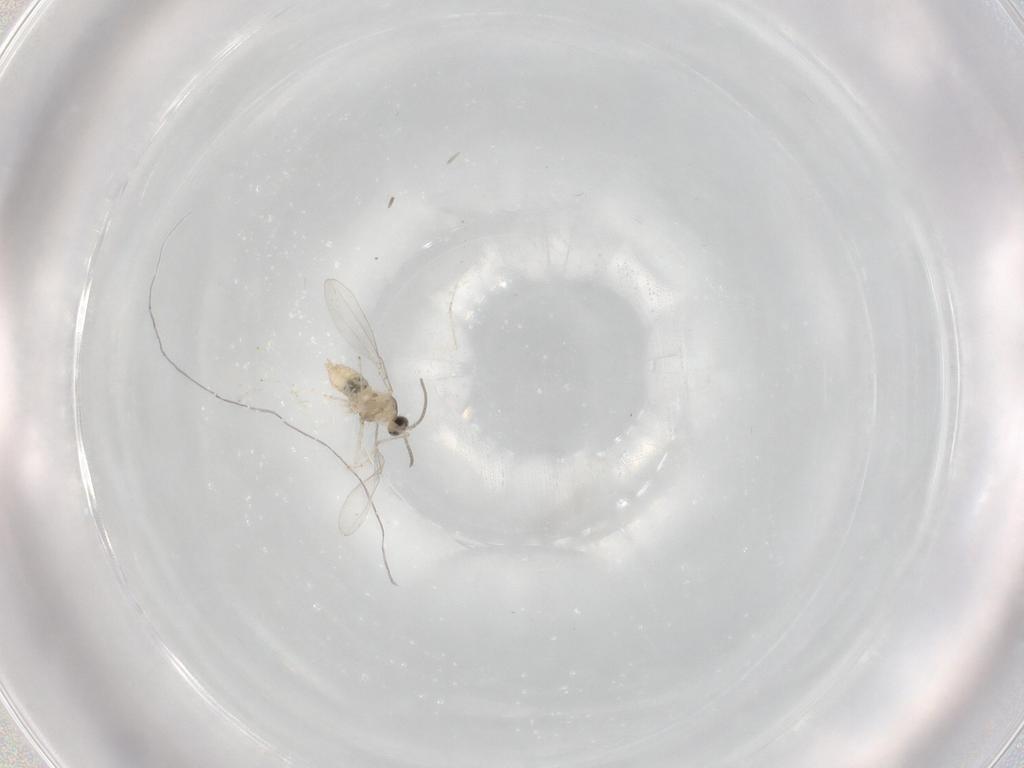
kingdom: Animalia
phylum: Arthropoda
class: Insecta
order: Diptera
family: Cecidomyiidae
